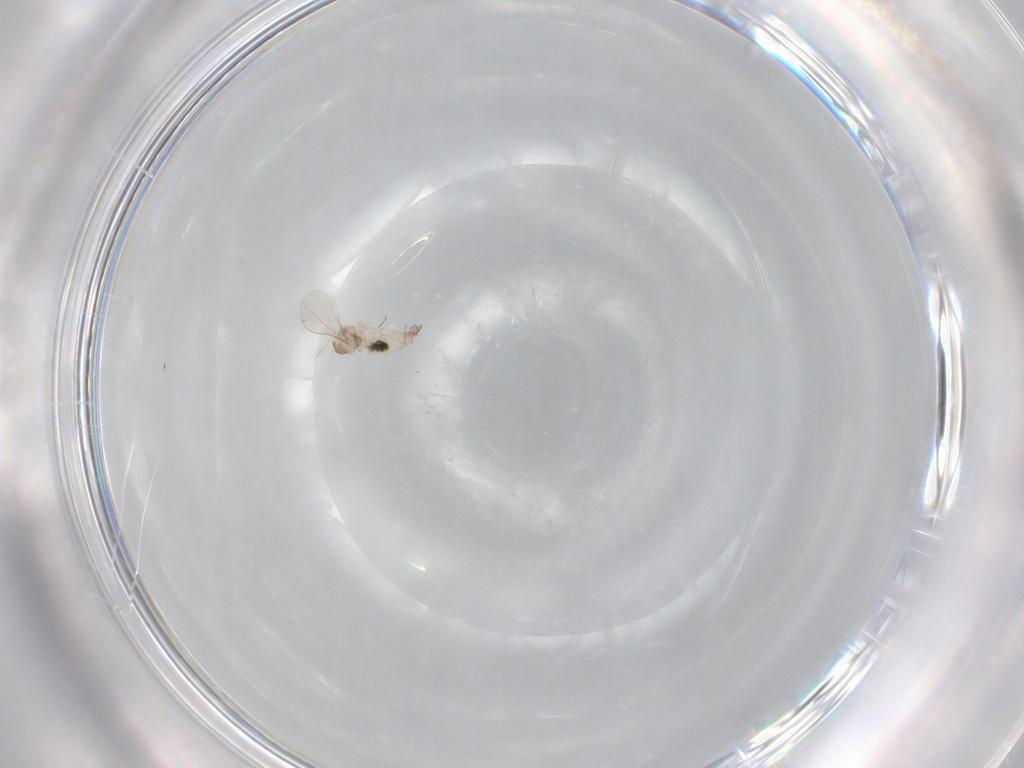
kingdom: Animalia
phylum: Arthropoda
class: Insecta
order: Diptera
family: Cecidomyiidae
